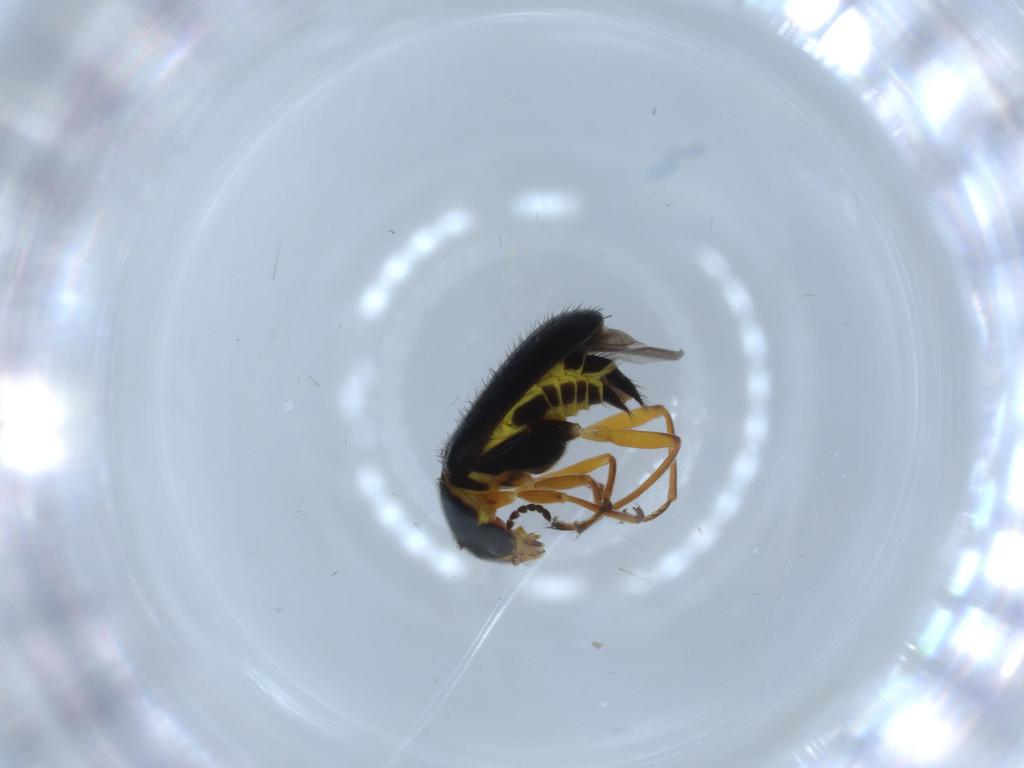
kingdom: Animalia
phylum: Arthropoda
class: Insecta
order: Coleoptera
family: Melyridae
